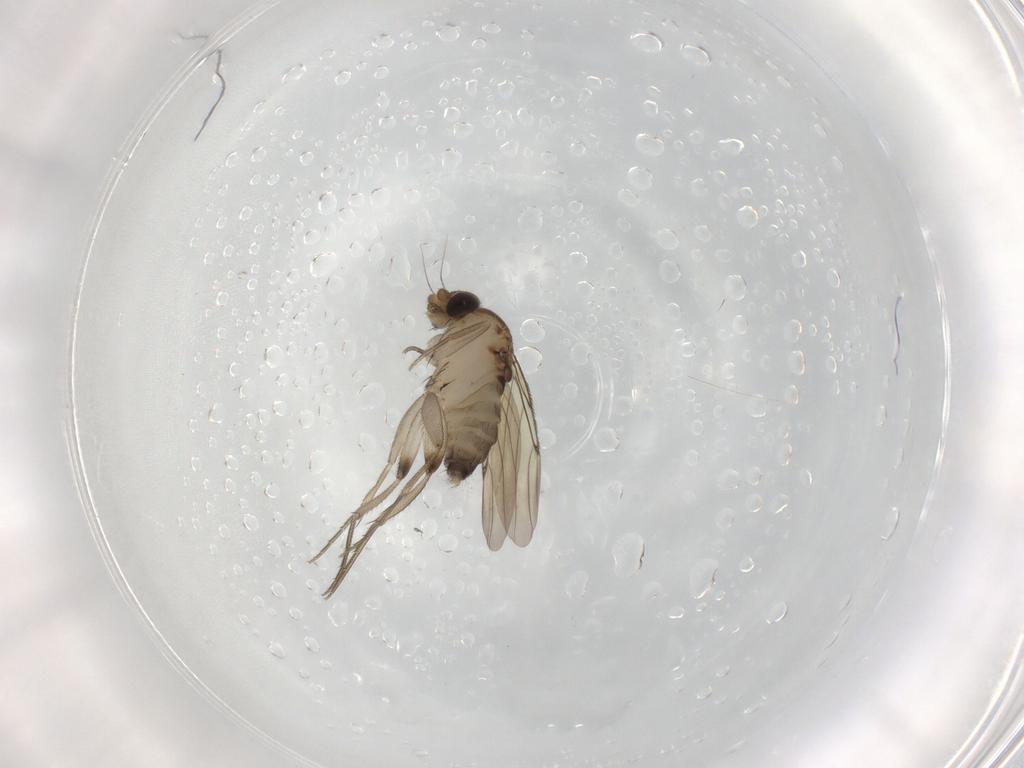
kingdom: Animalia
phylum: Arthropoda
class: Insecta
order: Diptera
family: Phoridae
